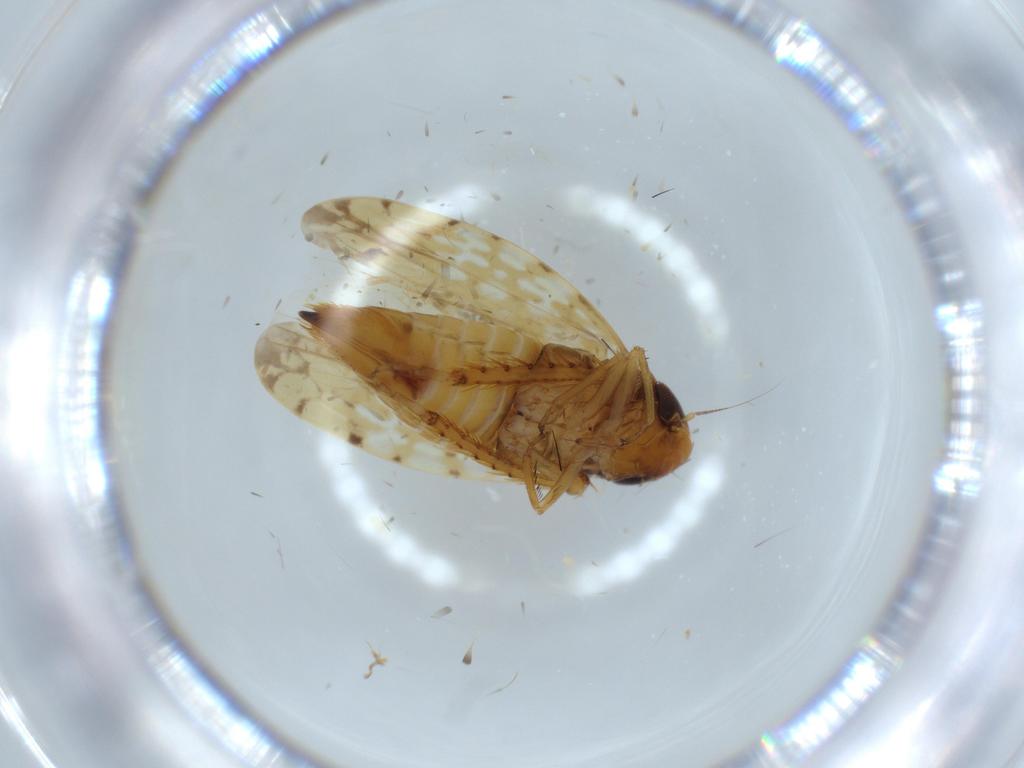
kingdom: Animalia
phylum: Arthropoda
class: Insecta
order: Hemiptera
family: Cicadellidae
